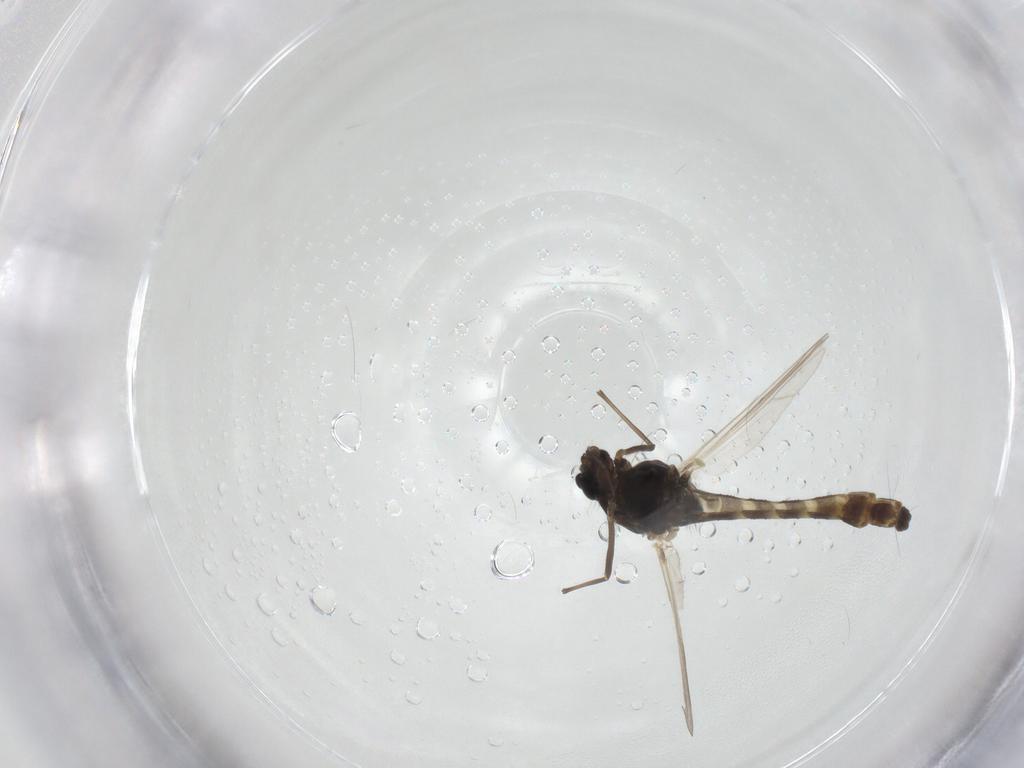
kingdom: Animalia
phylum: Arthropoda
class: Insecta
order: Diptera
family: Chironomidae
